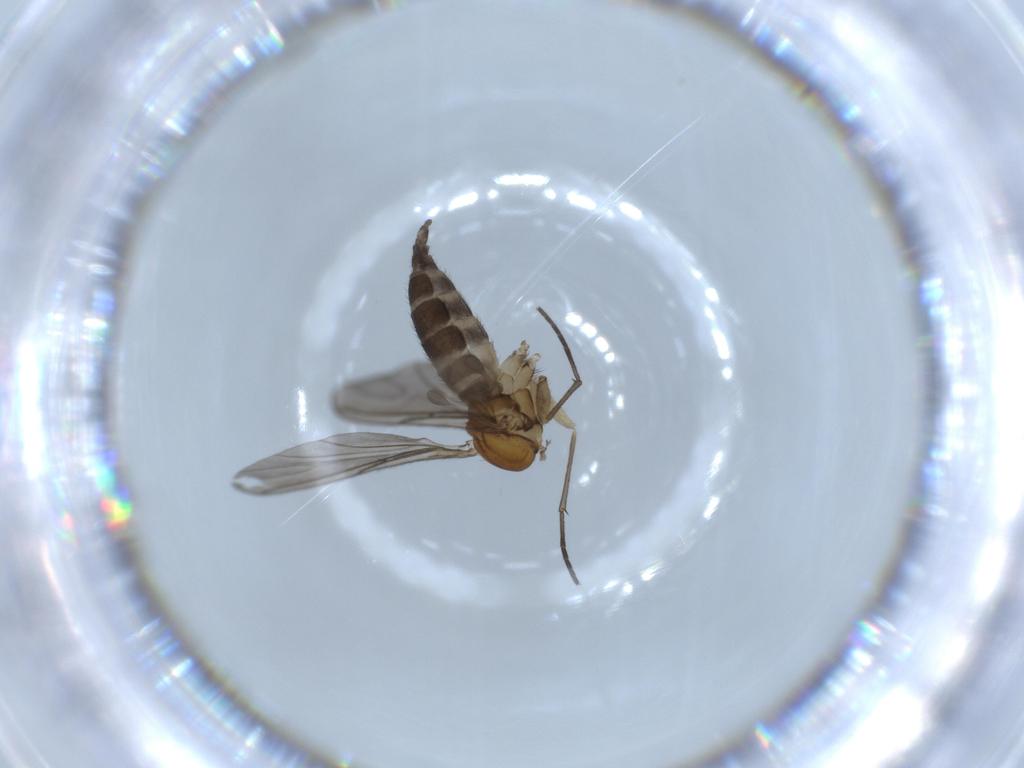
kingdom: Animalia
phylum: Arthropoda
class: Insecta
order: Diptera
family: Sciaridae
